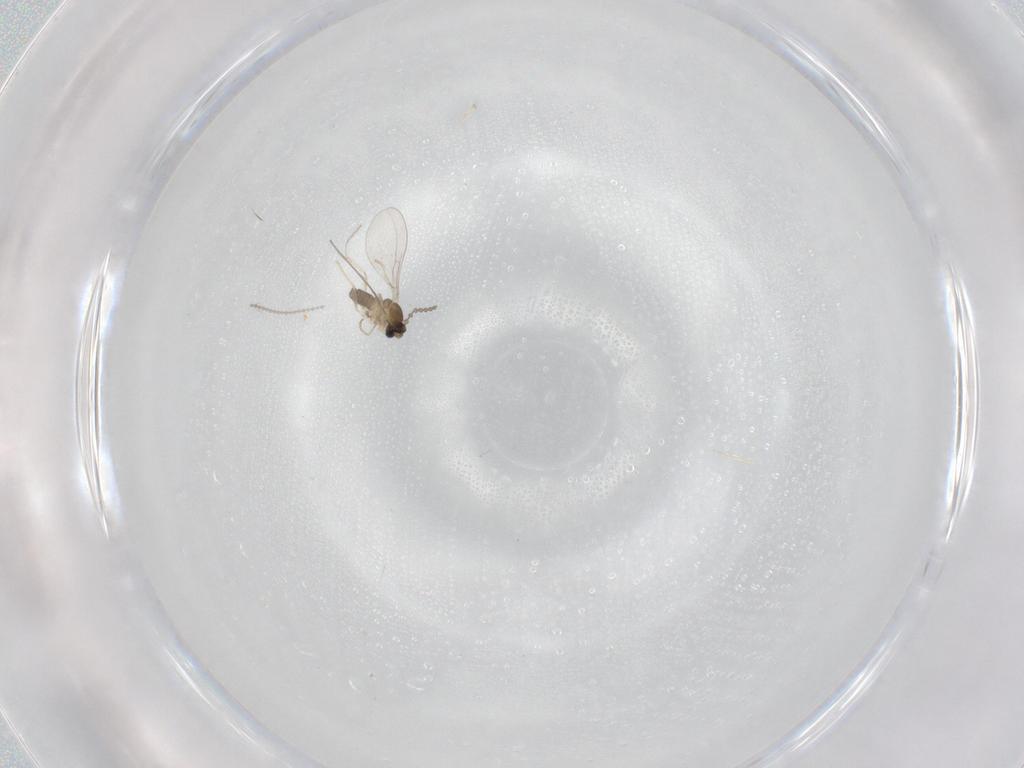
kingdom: Animalia
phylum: Arthropoda
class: Insecta
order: Diptera
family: Cecidomyiidae
